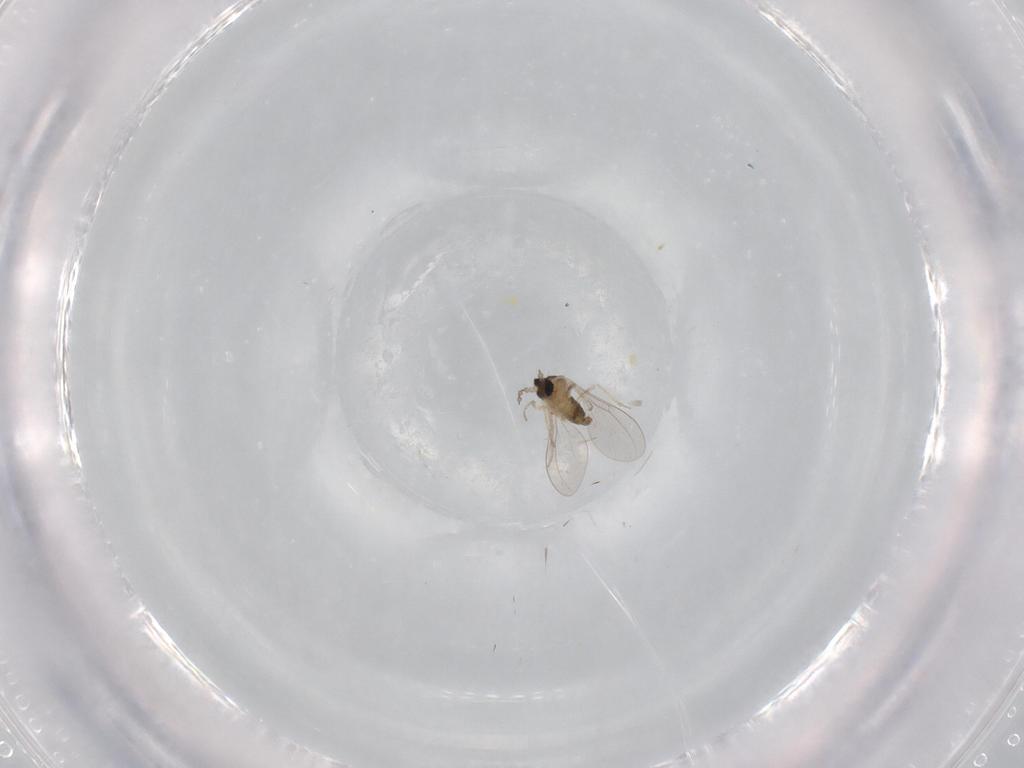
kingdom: Animalia
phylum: Arthropoda
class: Insecta
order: Diptera
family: Cecidomyiidae
